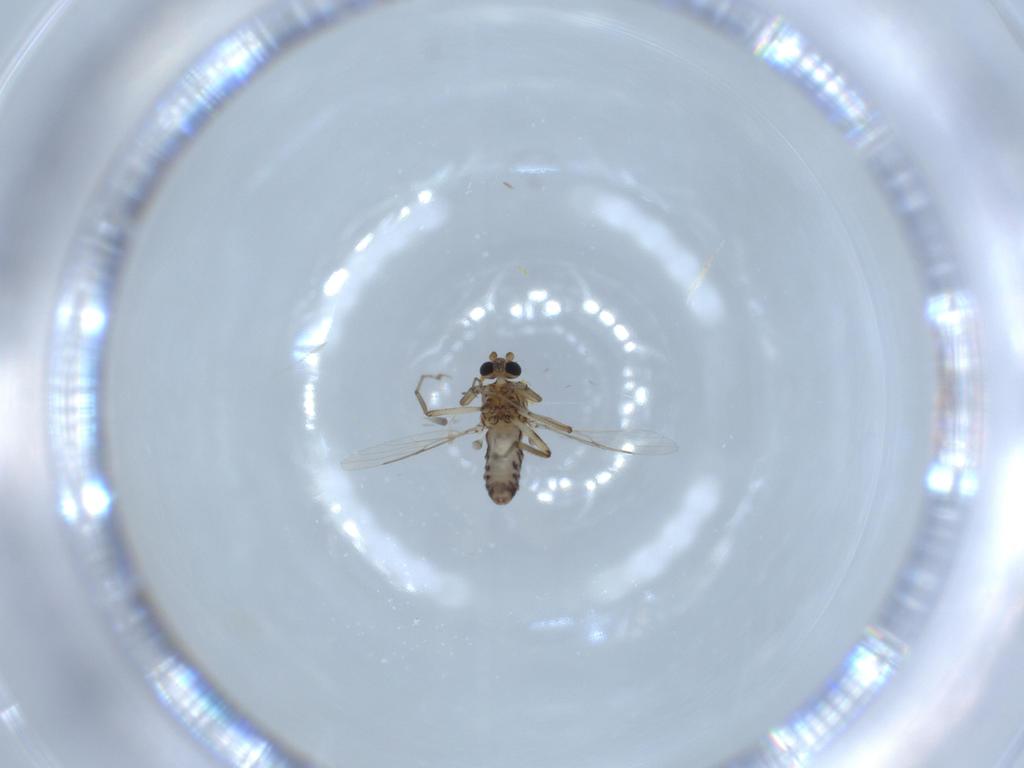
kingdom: Animalia
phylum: Arthropoda
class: Insecta
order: Diptera
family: Ceratopogonidae
